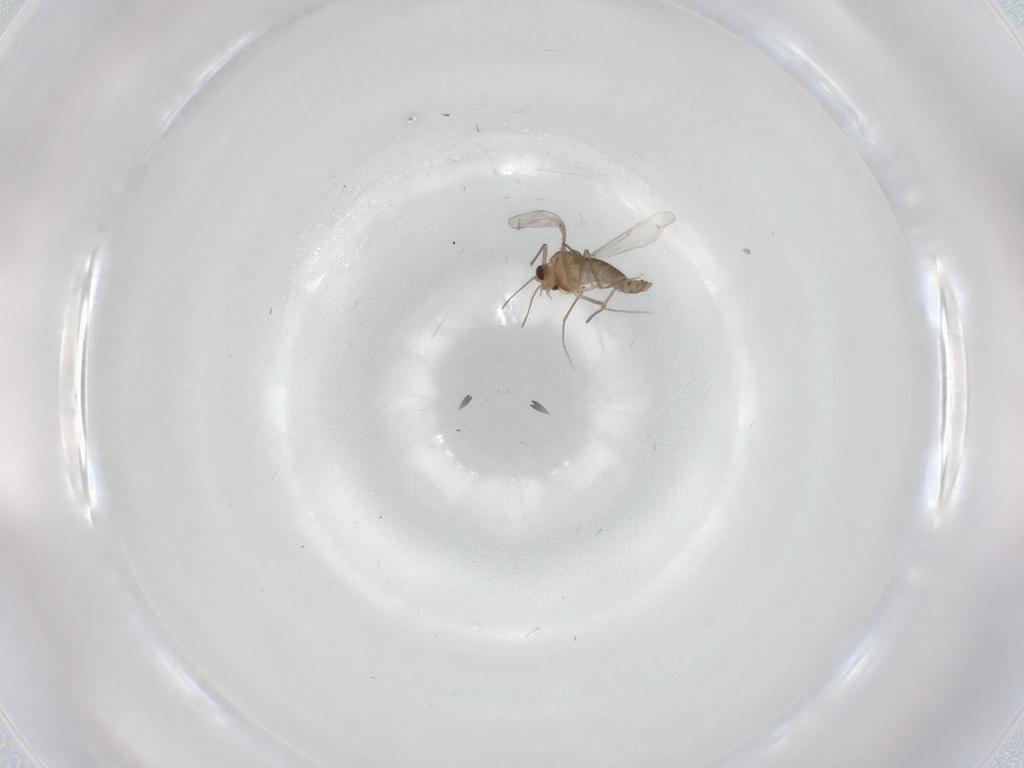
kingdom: Animalia
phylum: Arthropoda
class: Insecta
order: Diptera
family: Chironomidae
